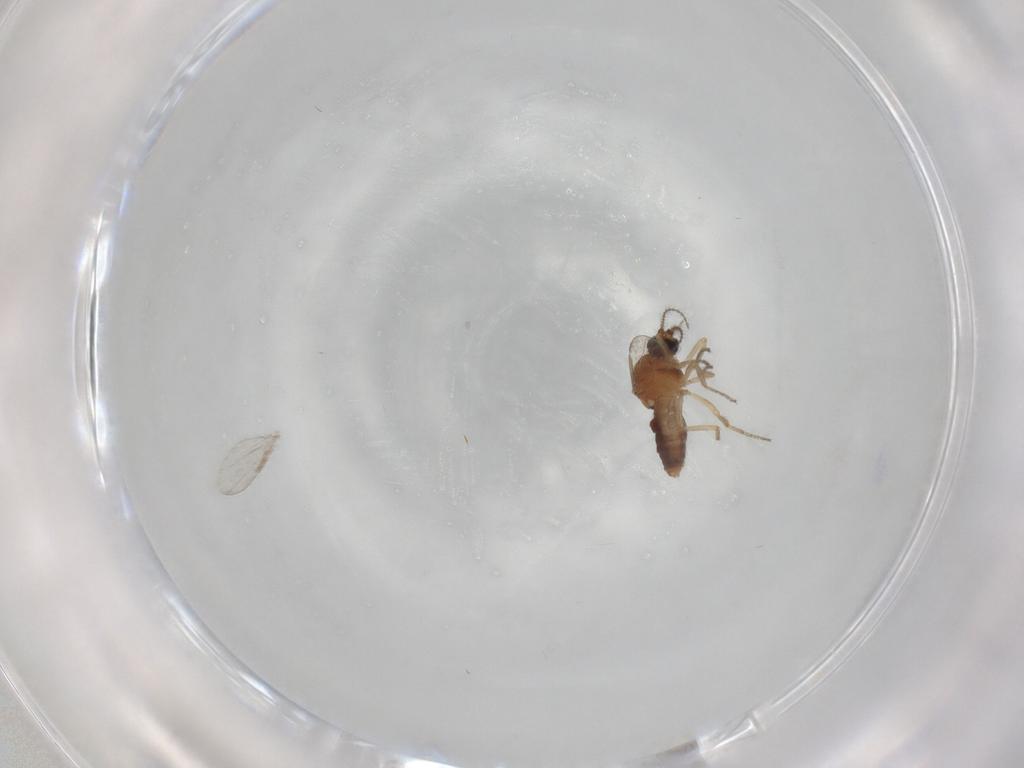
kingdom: Animalia
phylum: Arthropoda
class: Insecta
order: Diptera
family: Ceratopogonidae
